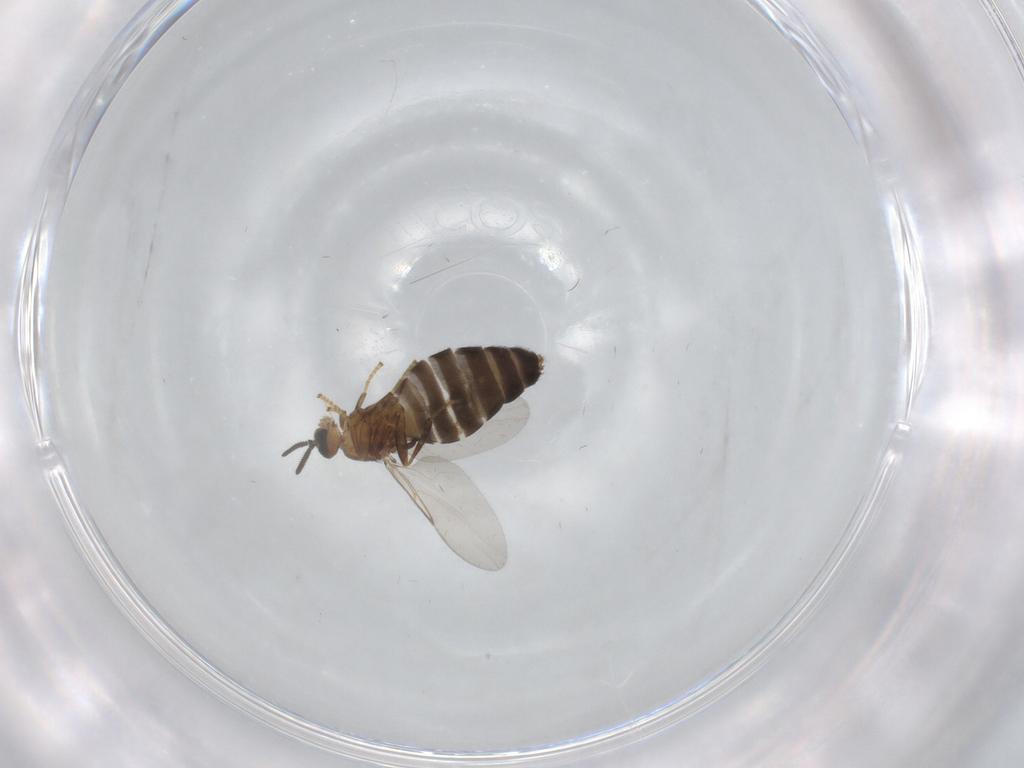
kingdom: Animalia
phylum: Arthropoda
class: Insecta
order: Diptera
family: Scatopsidae
